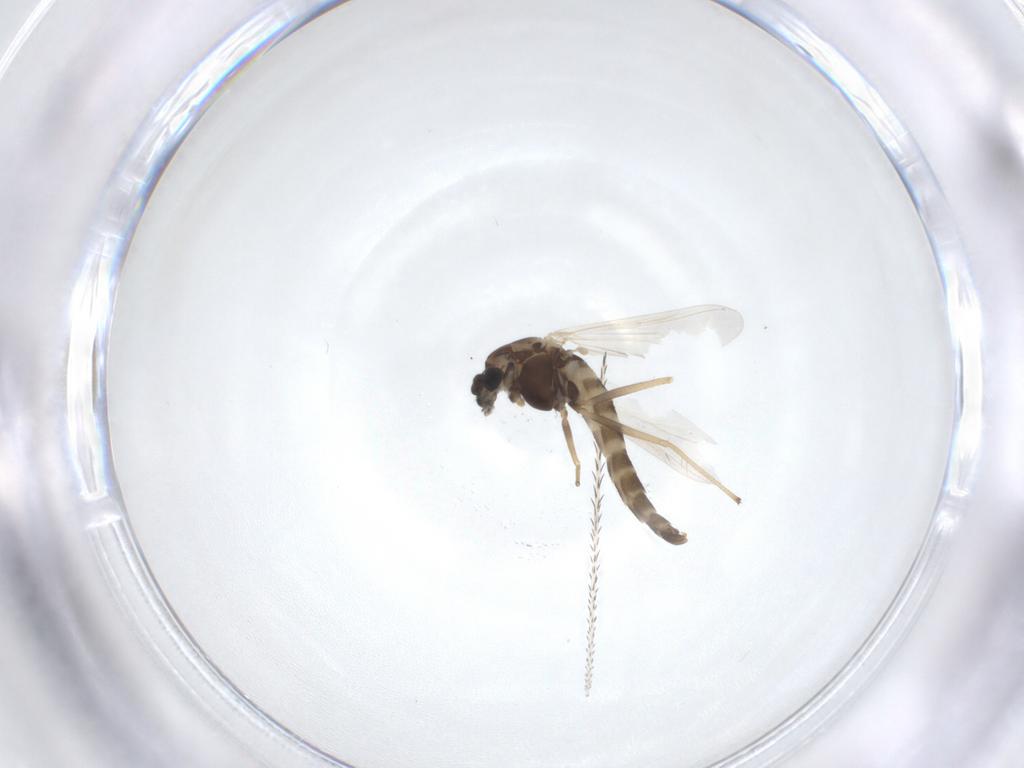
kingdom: Animalia
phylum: Arthropoda
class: Insecta
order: Diptera
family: Chironomidae
